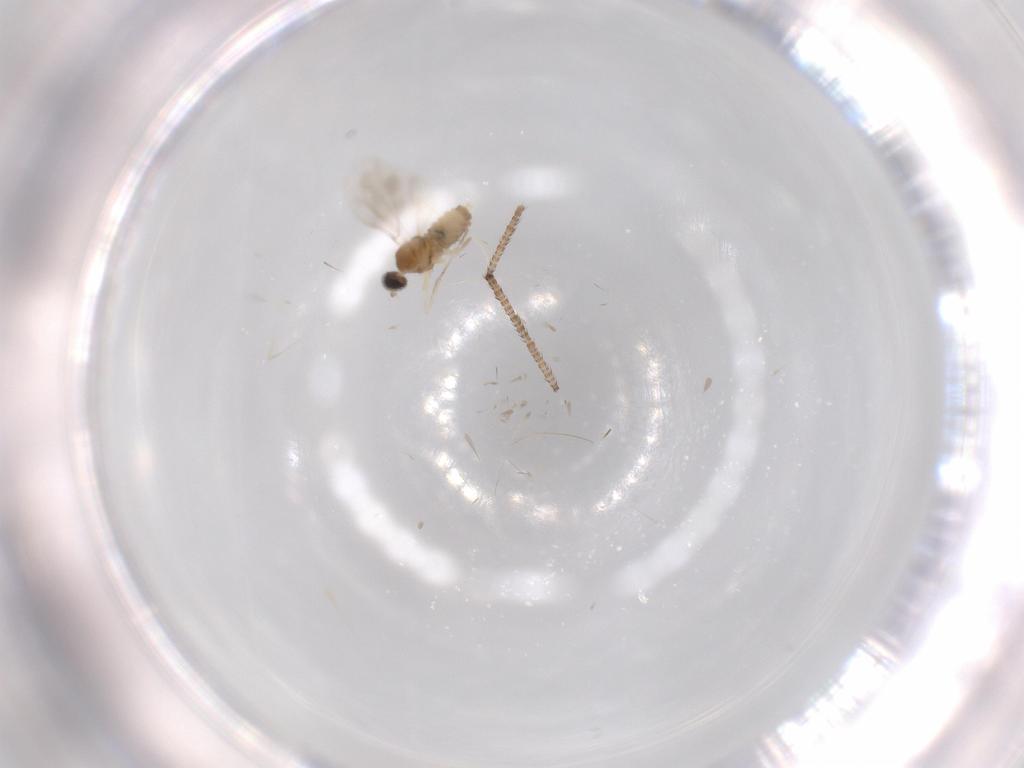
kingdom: Animalia
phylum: Arthropoda
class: Insecta
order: Diptera
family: Cecidomyiidae
